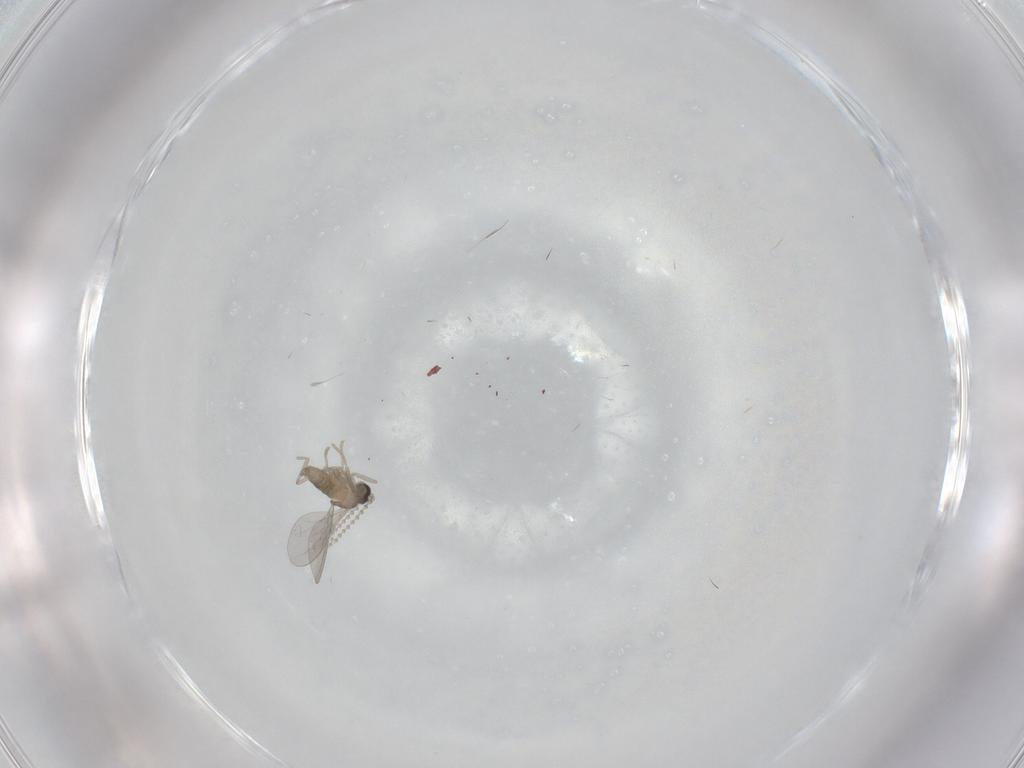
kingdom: Animalia
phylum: Arthropoda
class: Insecta
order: Diptera
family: Cecidomyiidae
